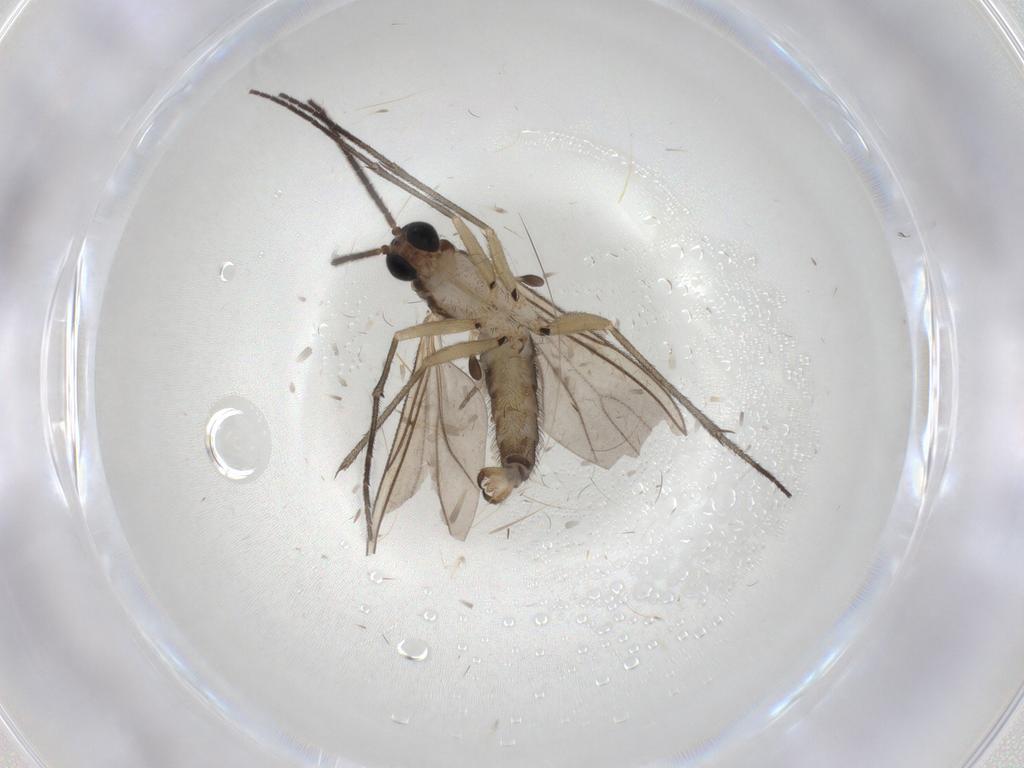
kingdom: Animalia
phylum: Arthropoda
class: Insecta
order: Diptera
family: Sciaridae
